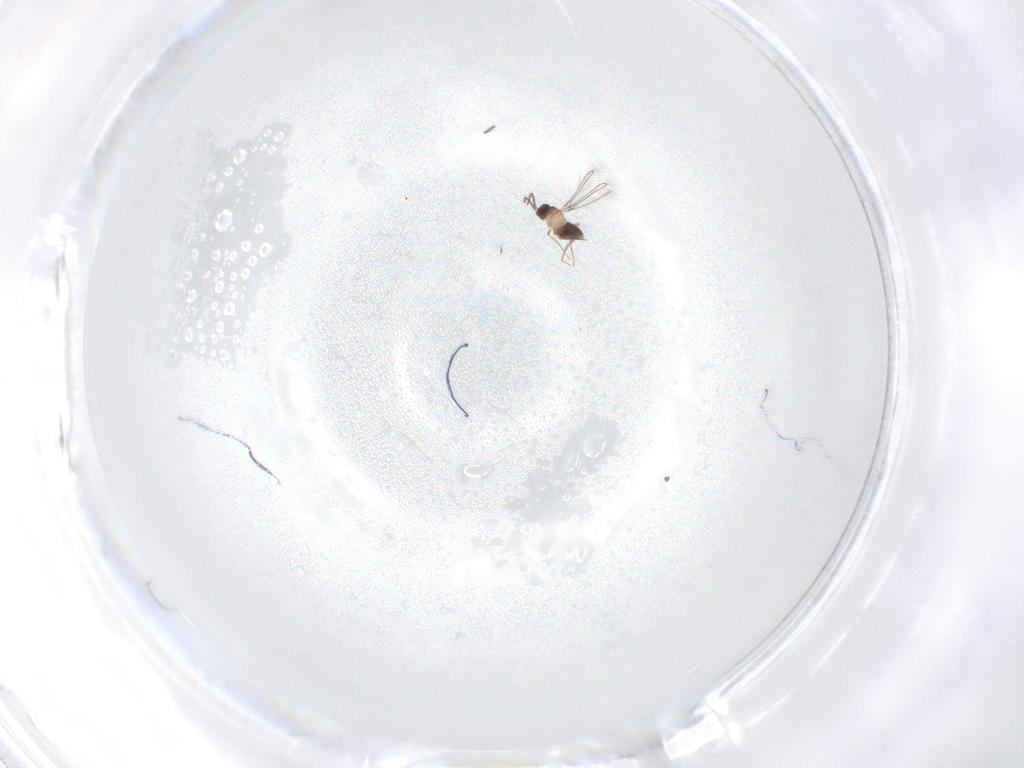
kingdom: Animalia
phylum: Arthropoda
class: Insecta
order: Hymenoptera
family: Mymaridae
